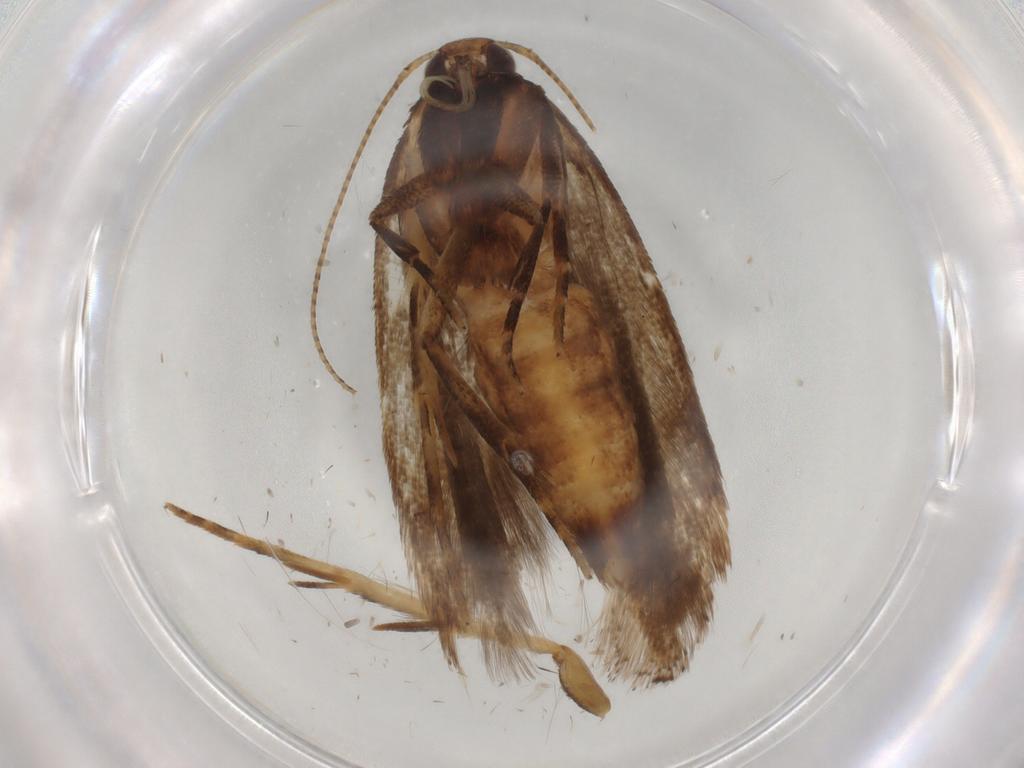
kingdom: Animalia
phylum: Arthropoda
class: Insecta
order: Lepidoptera
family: Gelechiidae
